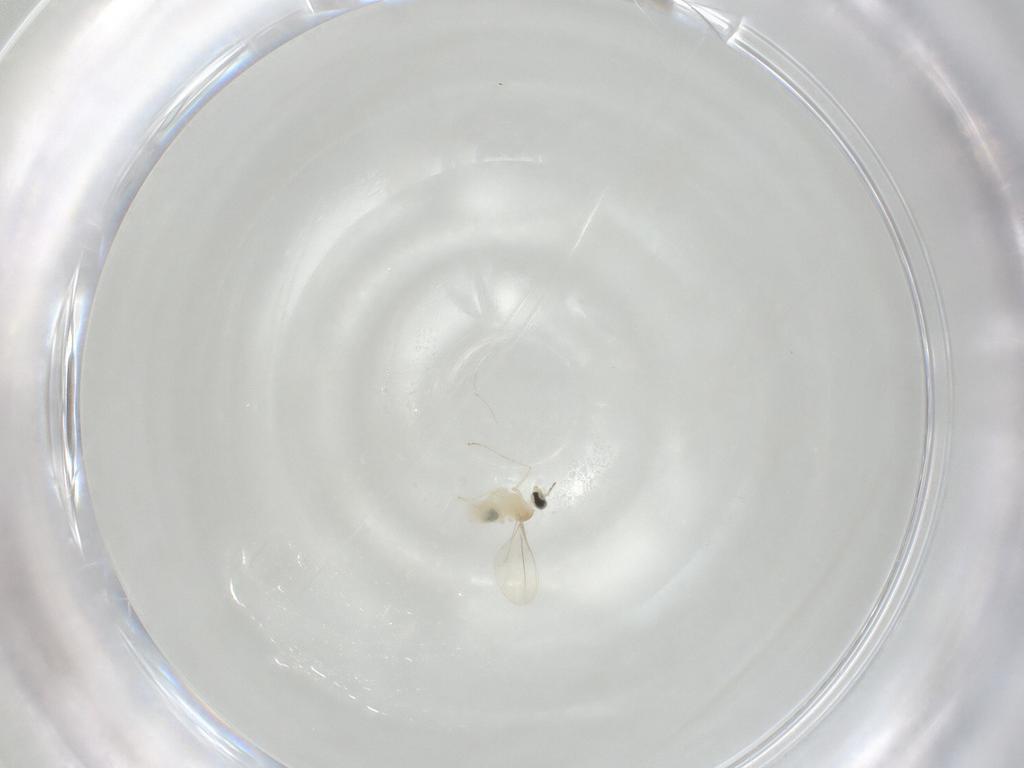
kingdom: Animalia
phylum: Arthropoda
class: Insecta
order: Diptera
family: Cecidomyiidae
